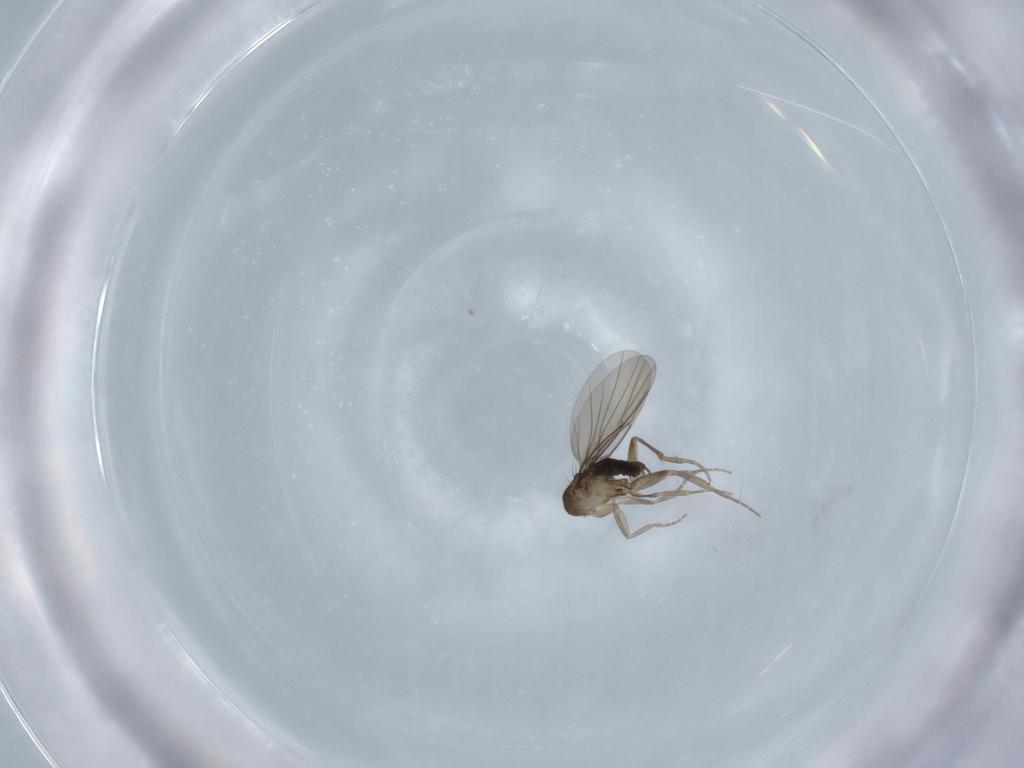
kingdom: Animalia
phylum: Arthropoda
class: Insecta
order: Diptera
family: Phoridae
